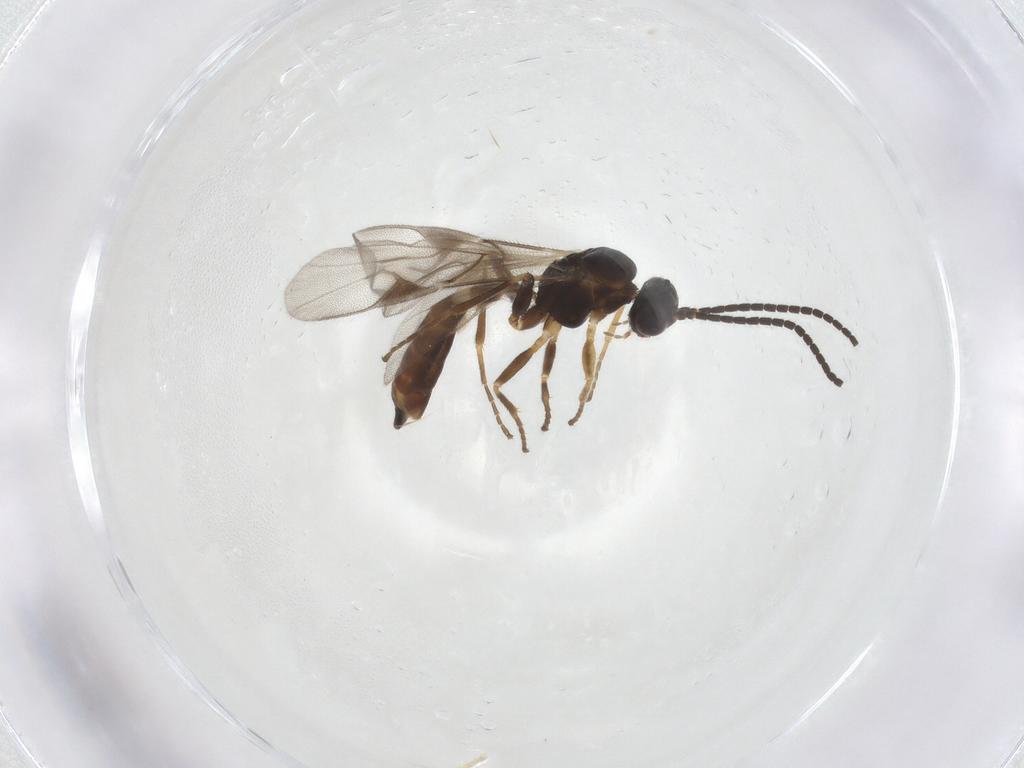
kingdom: Animalia
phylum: Arthropoda
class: Insecta
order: Hymenoptera
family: Braconidae
